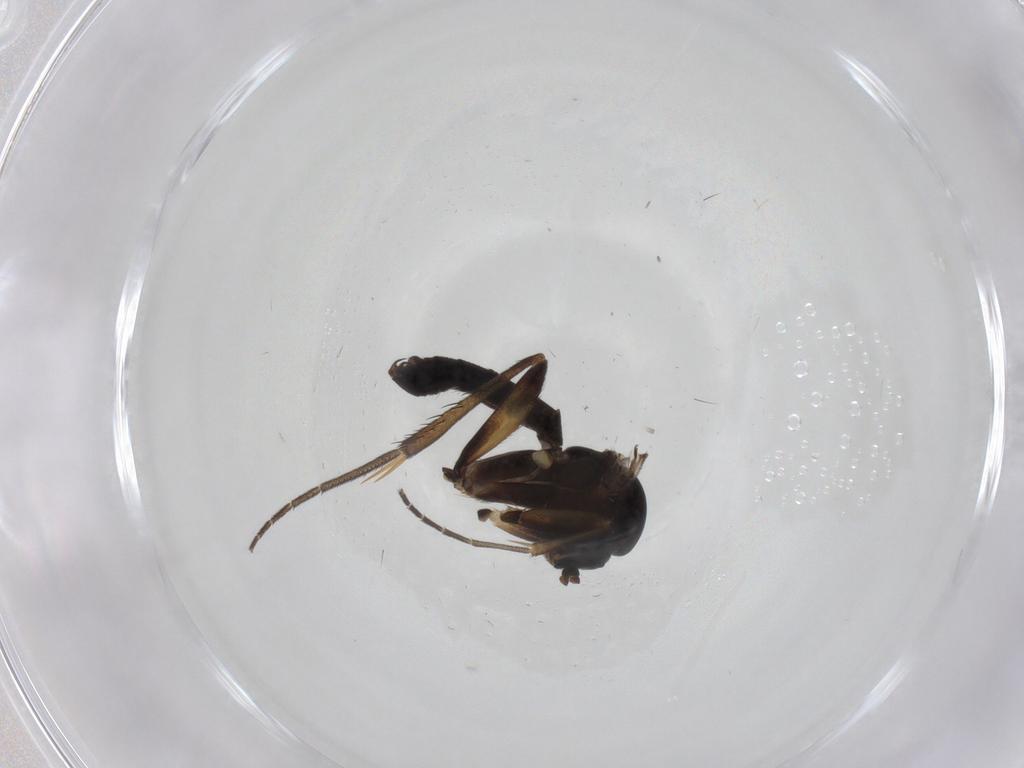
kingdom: Animalia
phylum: Arthropoda
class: Insecta
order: Diptera
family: Mycetophilidae
